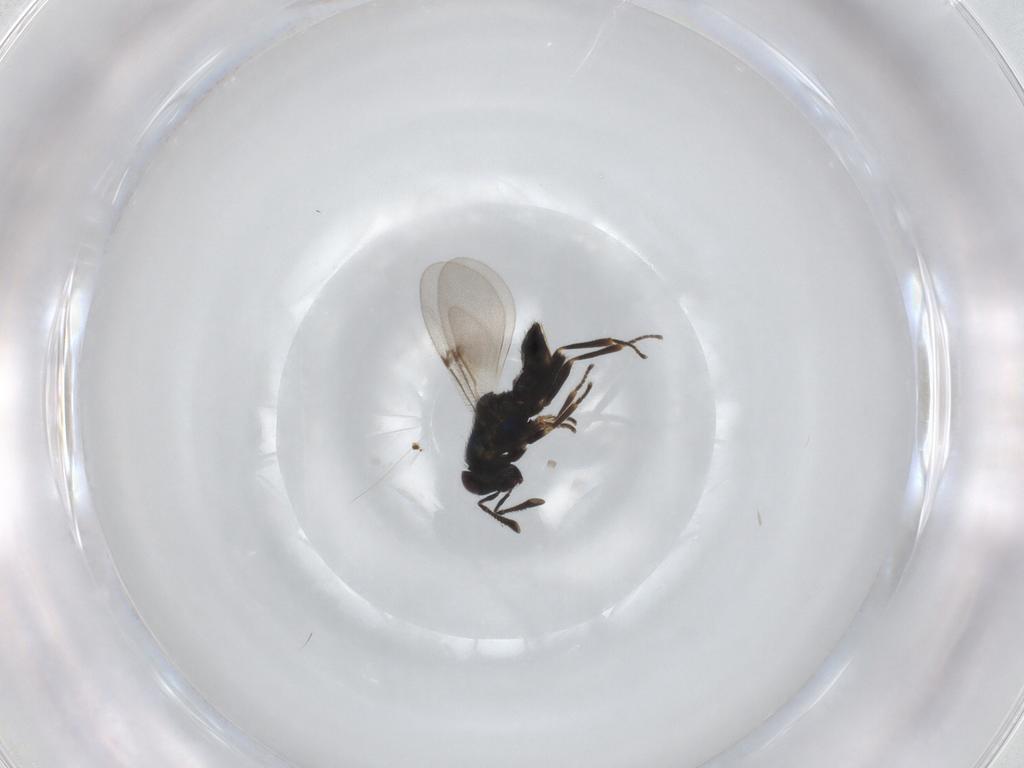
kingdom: Animalia
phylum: Arthropoda
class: Insecta
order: Hymenoptera
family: Encyrtidae
